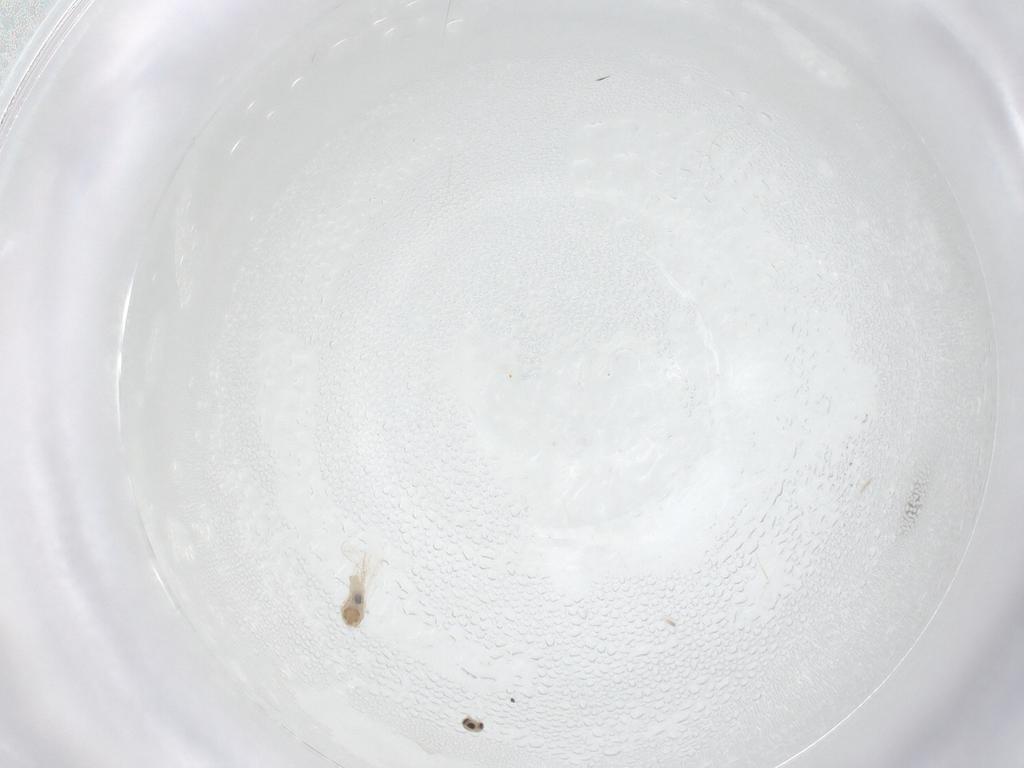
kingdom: Animalia
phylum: Arthropoda
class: Insecta
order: Diptera
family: Cecidomyiidae
